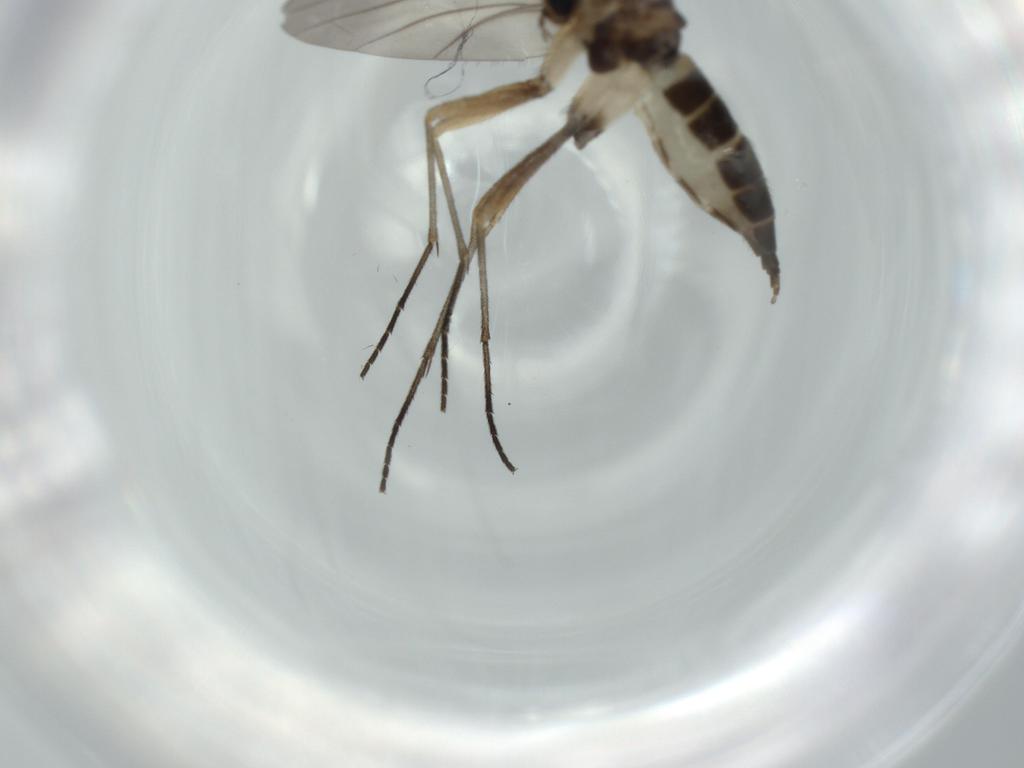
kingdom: Animalia
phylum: Arthropoda
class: Insecta
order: Diptera
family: Sciaridae
